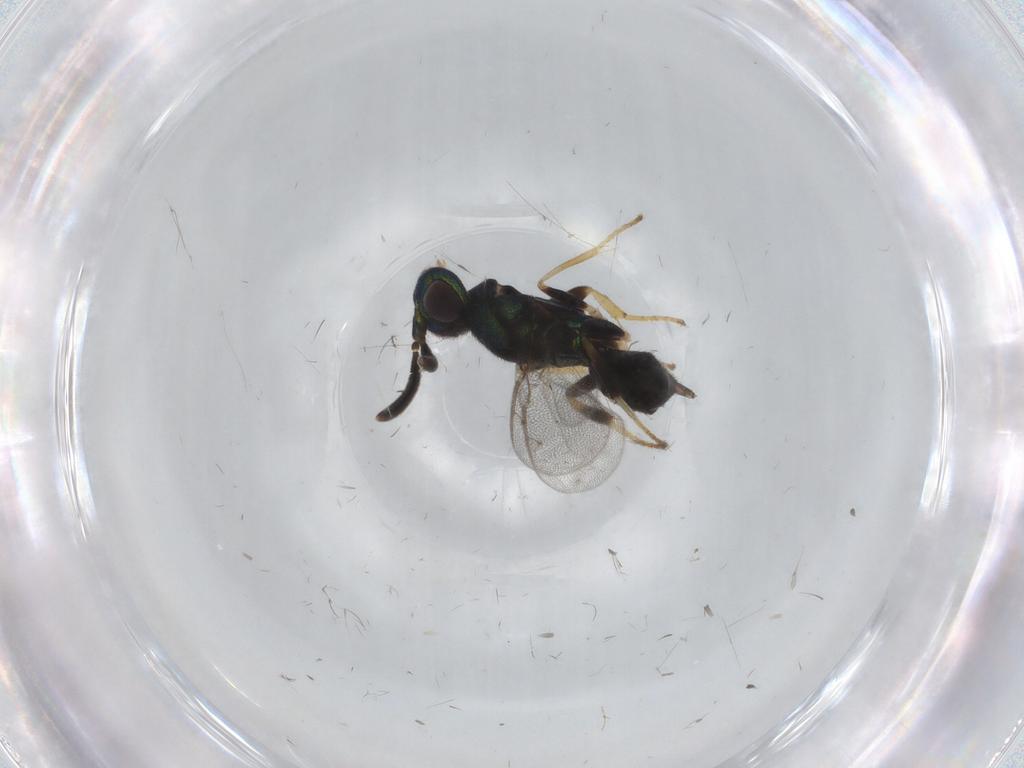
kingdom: Animalia
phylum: Arthropoda
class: Insecta
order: Hymenoptera
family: Eupelmidae
